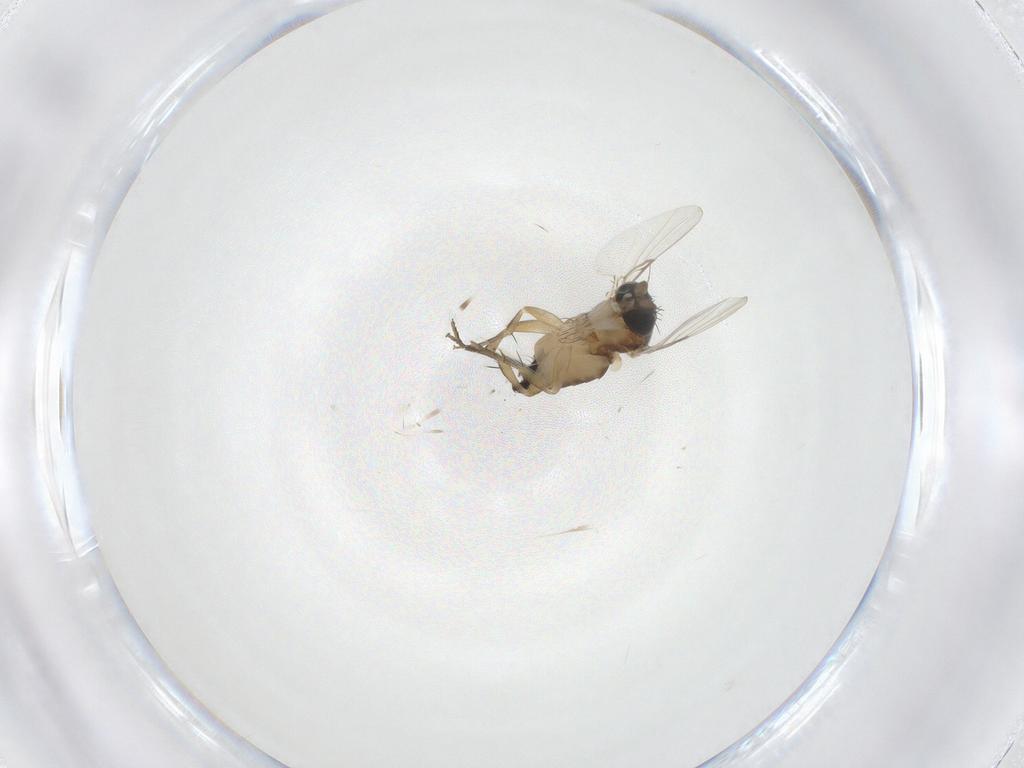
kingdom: Animalia
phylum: Arthropoda
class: Insecta
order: Diptera
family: Phoridae
